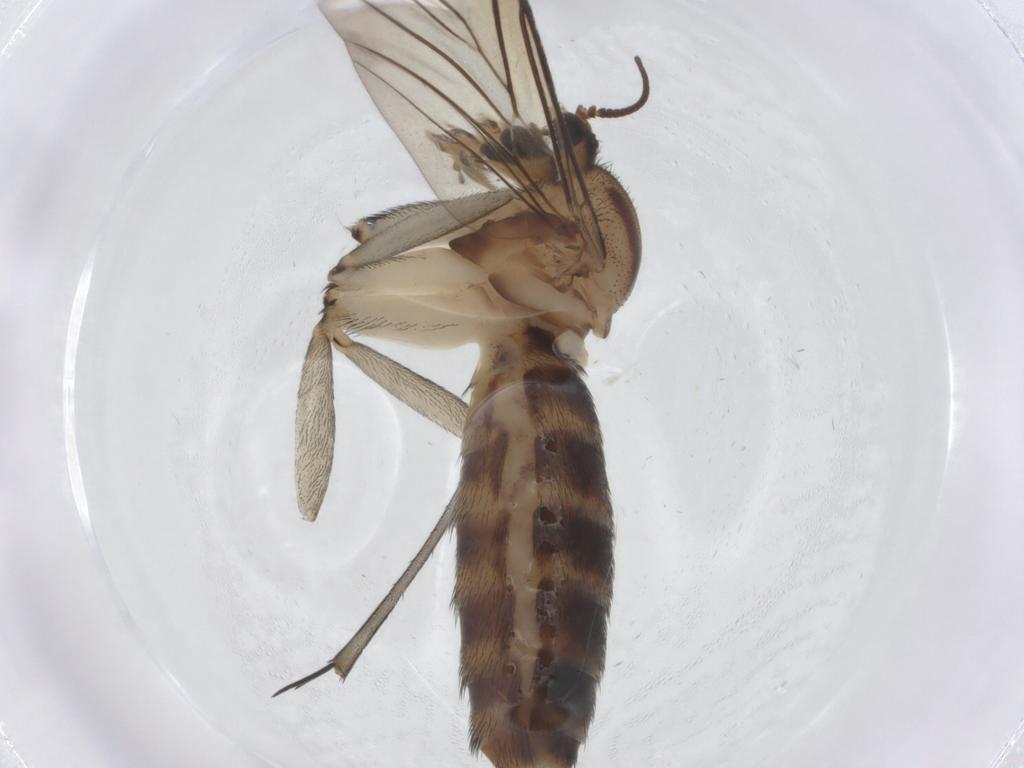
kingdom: Animalia
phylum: Arthropoda
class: Insecta
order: Diptera
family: Keroplatidae
